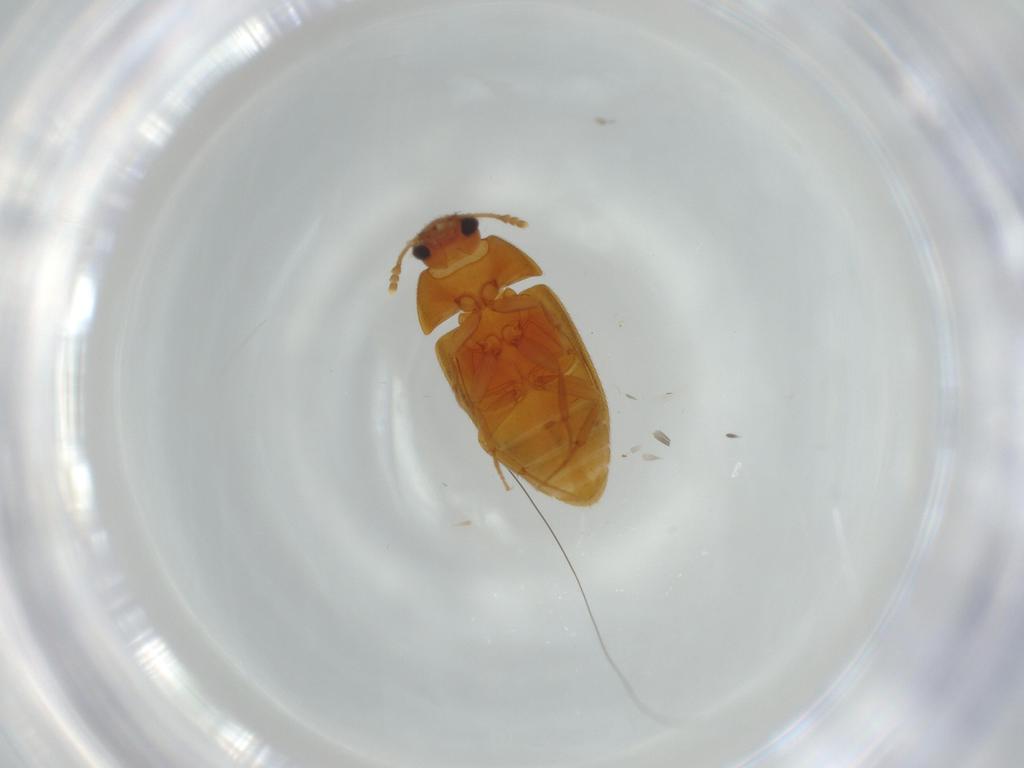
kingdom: Animalia
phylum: Arthropoda
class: Insecta
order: Coleoptera
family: Mycetophagidae
